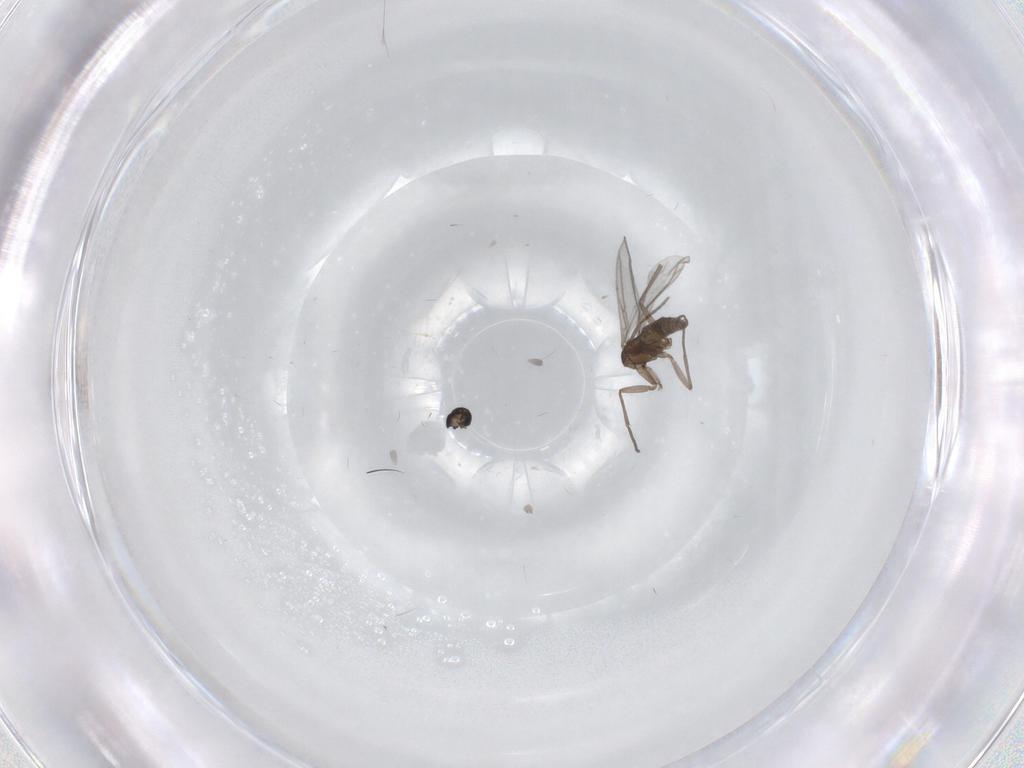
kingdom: Animalia
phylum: Arthropoda
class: Insecta
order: Diptera
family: Sciaridae
